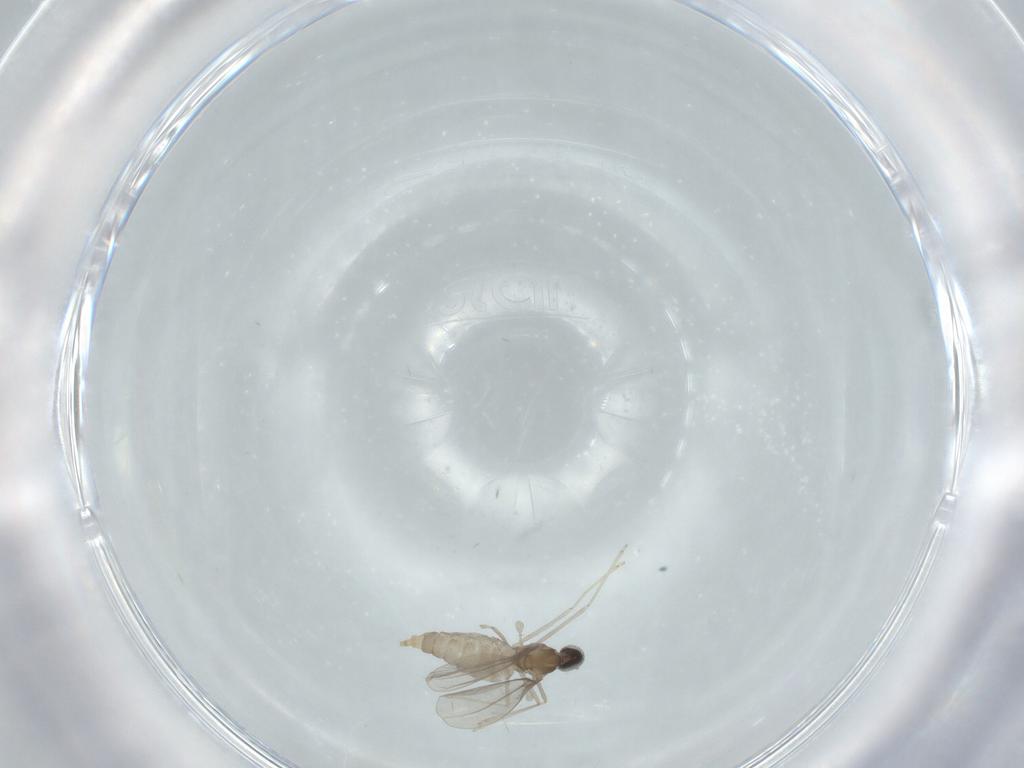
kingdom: Animalia
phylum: Arthropoda
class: Insecta
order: Diptera
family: Cecidomyiidae
